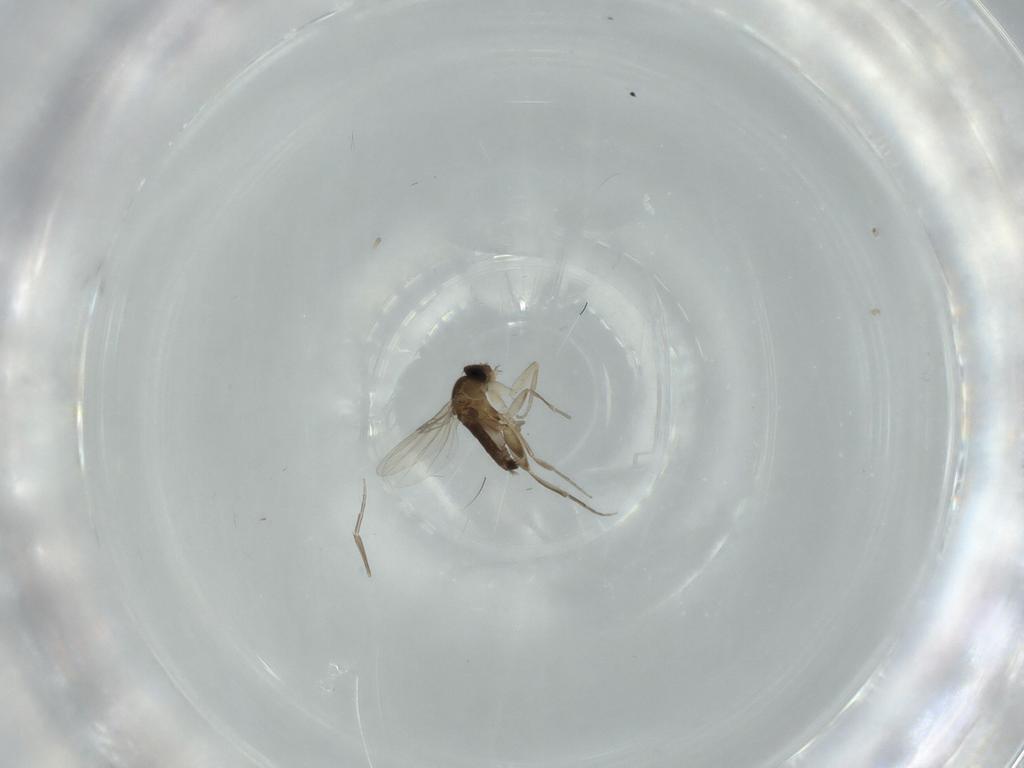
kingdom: Animalia
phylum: Arthropoda
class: Insecta
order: Diptera
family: Phoridae
